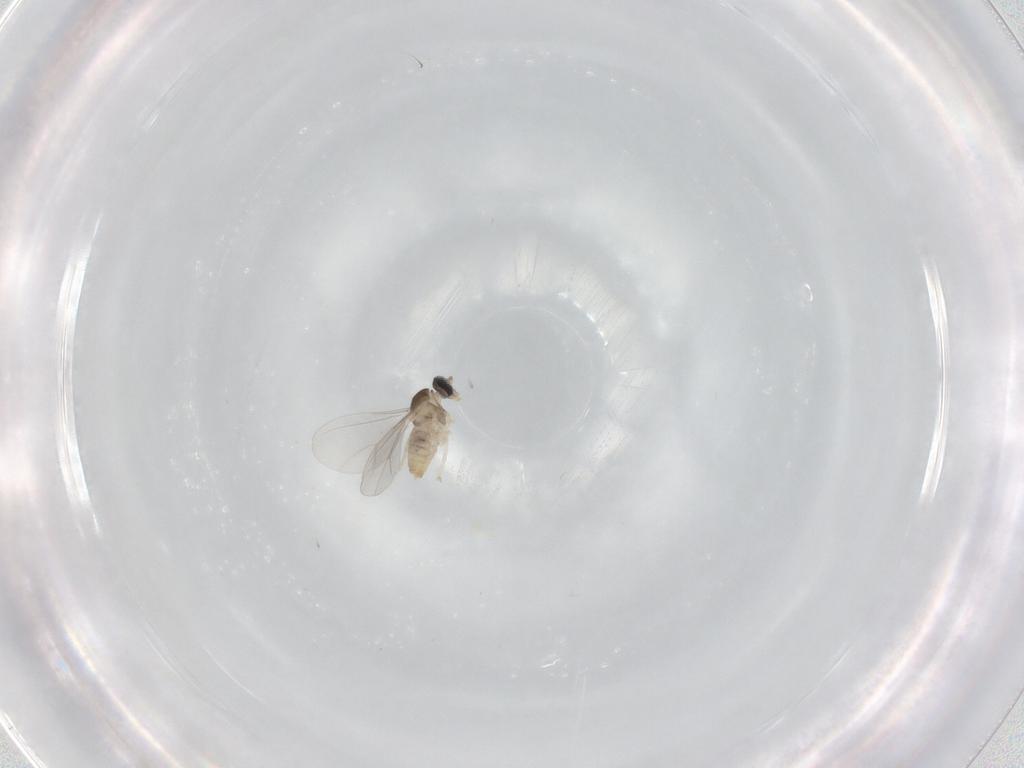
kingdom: Animalia
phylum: Arthropoda
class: Insecta
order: Diptera
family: Cecidomyiidae
